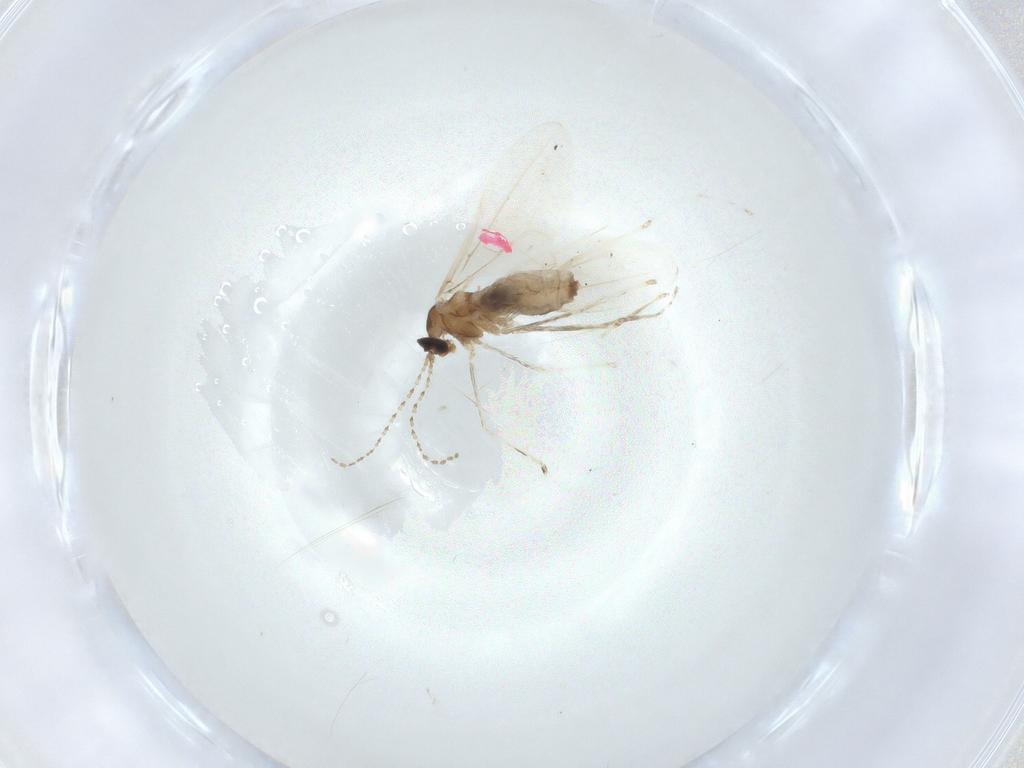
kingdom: Animalia
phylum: Arthropoda
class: Insecta
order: Diptera
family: Cecidomyiidae
